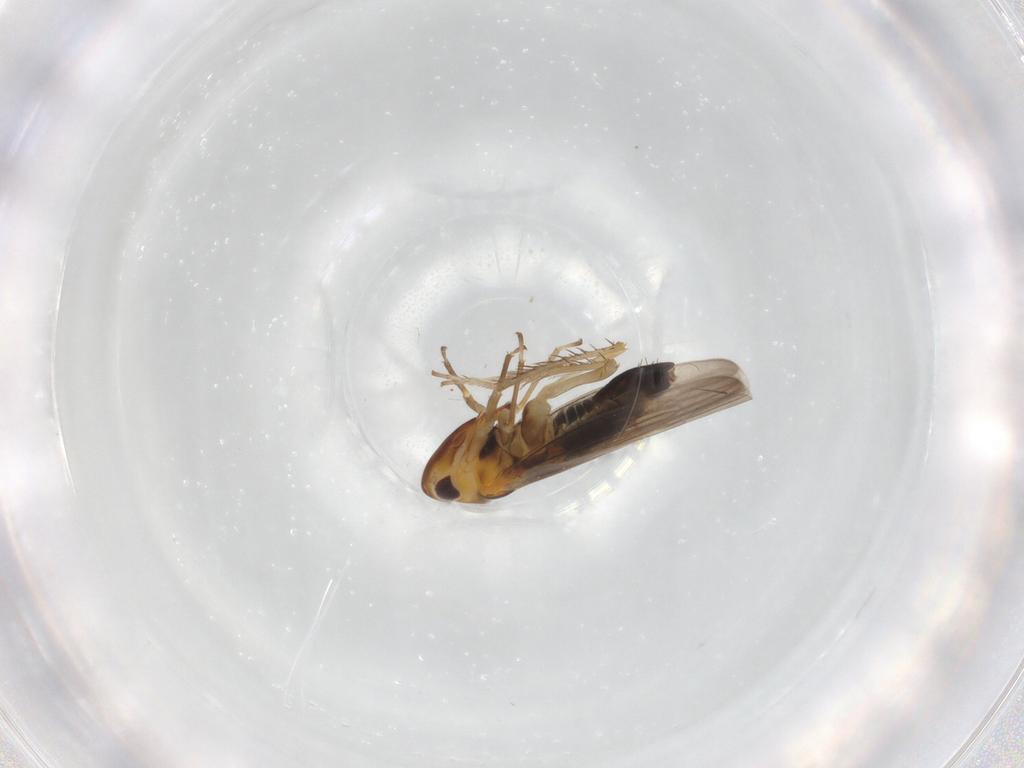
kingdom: Animalia
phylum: Arthropoda
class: Insecta
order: Hemiptera
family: Cicadellidae
